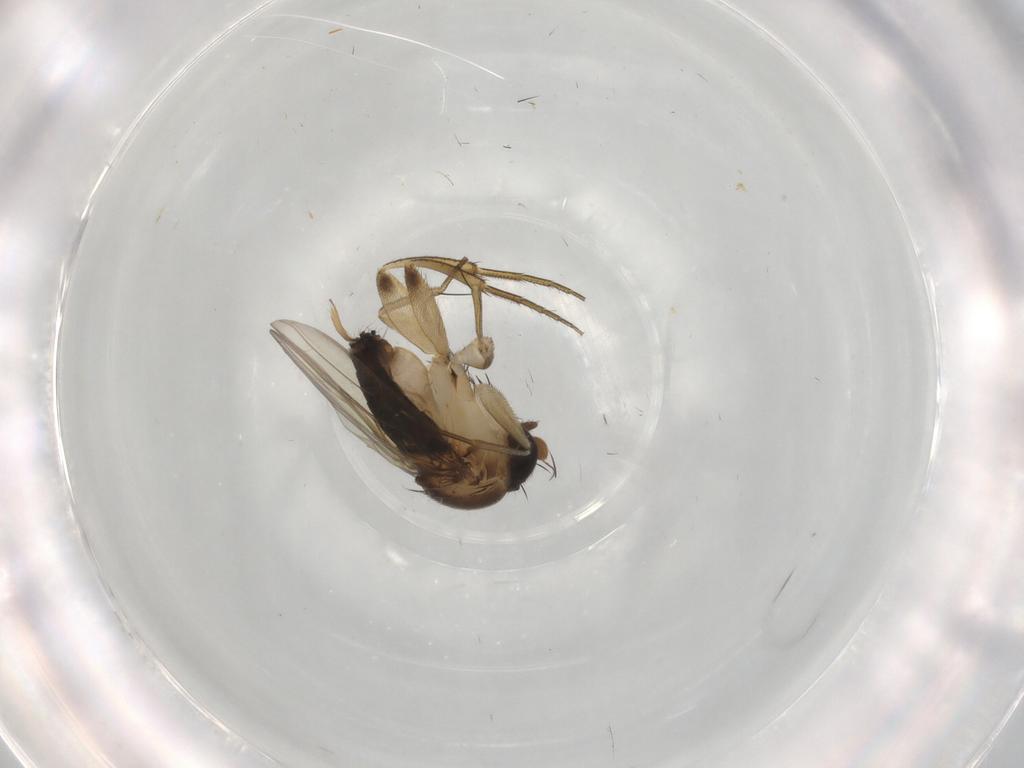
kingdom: Animalia
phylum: Arthropoda
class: Insecta
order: Diptera
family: Phoridae
